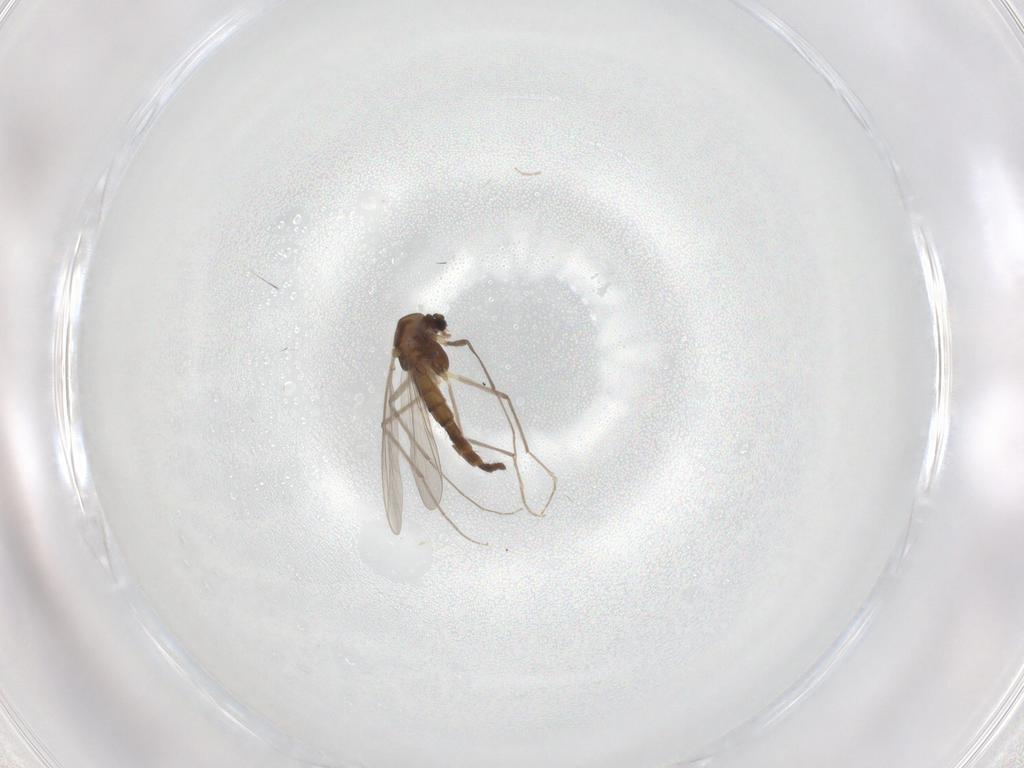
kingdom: Animalia
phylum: Arthropoda
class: Insecta
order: Diptera
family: Chironomidae
